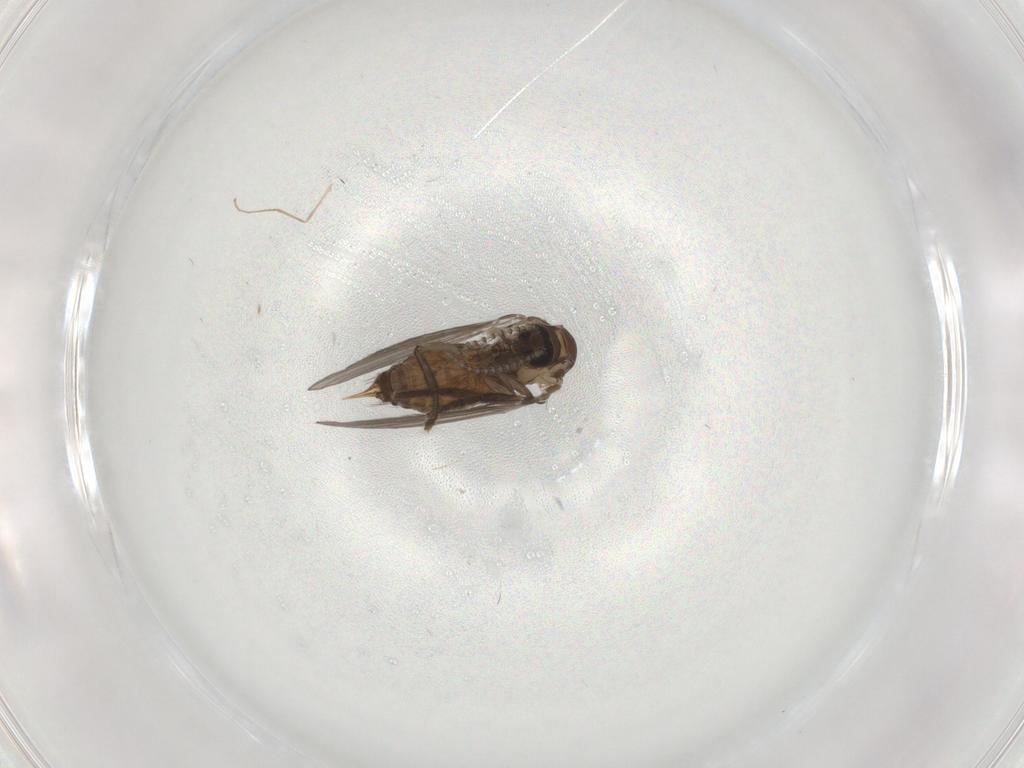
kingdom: Animalia
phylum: Arthropoda
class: Insecta
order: Diptera
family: Psychodidae
